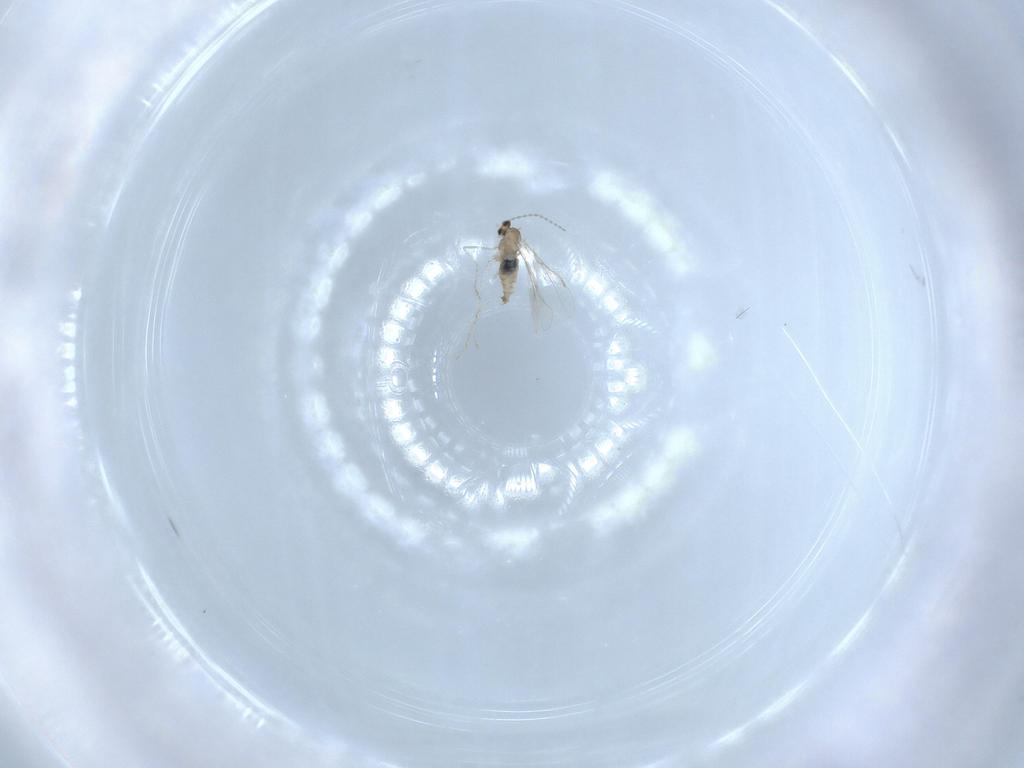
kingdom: Animalia
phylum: Arthropoda
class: Insecta
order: Diptera
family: Cecidomyiidae
